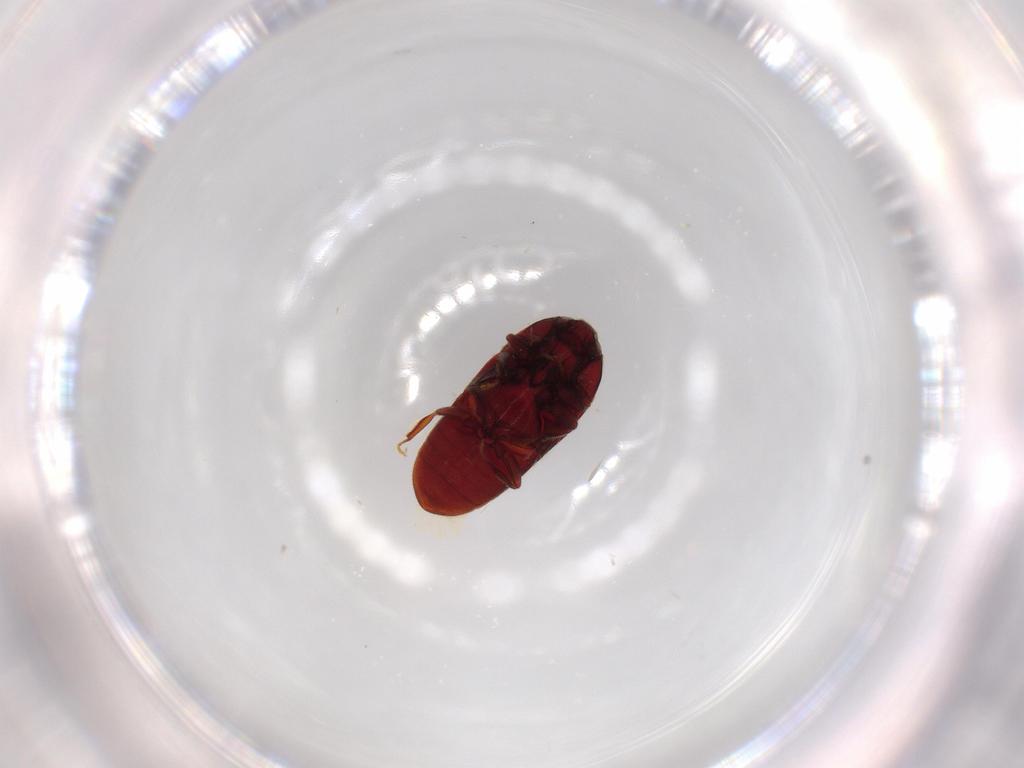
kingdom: Animalia
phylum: Arthropoda
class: Insecta
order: Coleoptera
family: Throscidae
